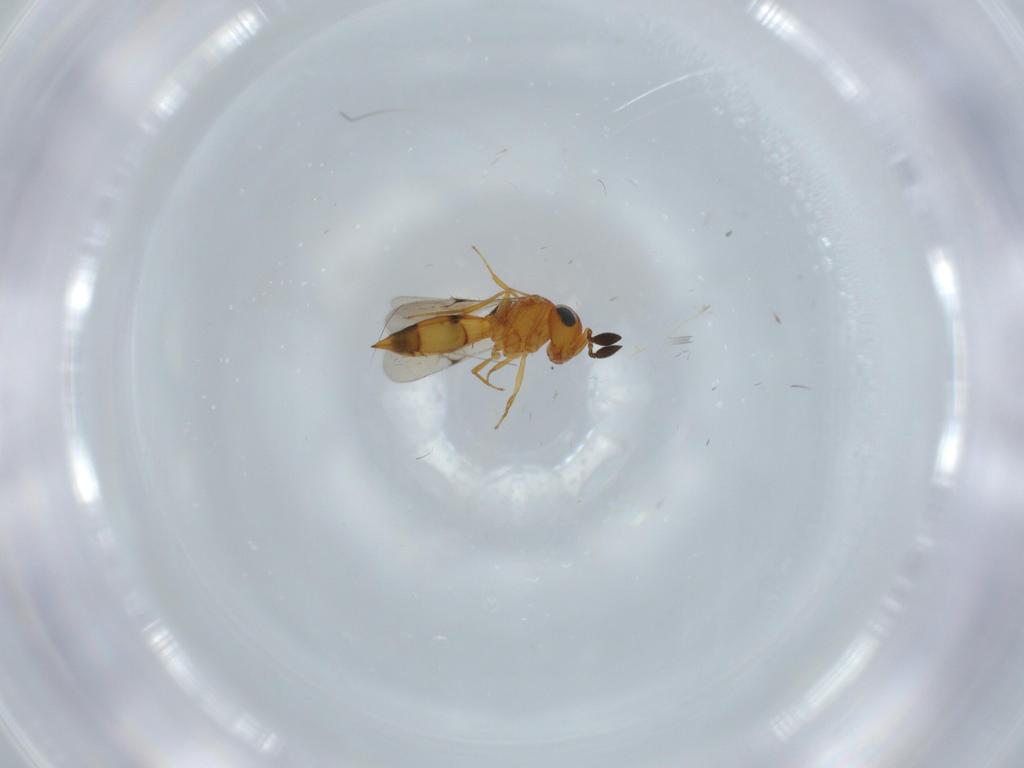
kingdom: Animalia
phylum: Arthropoda
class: Insecta
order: Hymenoptera
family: Scelionidae
